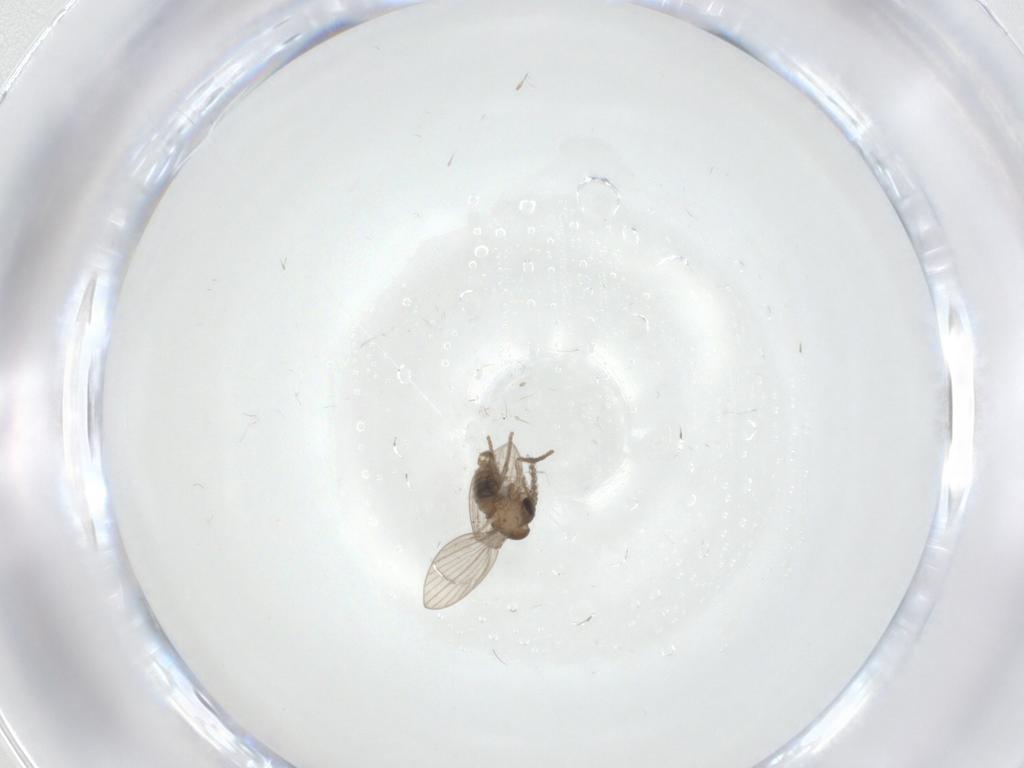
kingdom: Animalia
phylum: Arthropoda
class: Insecta
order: Diptera
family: Psychodidae
